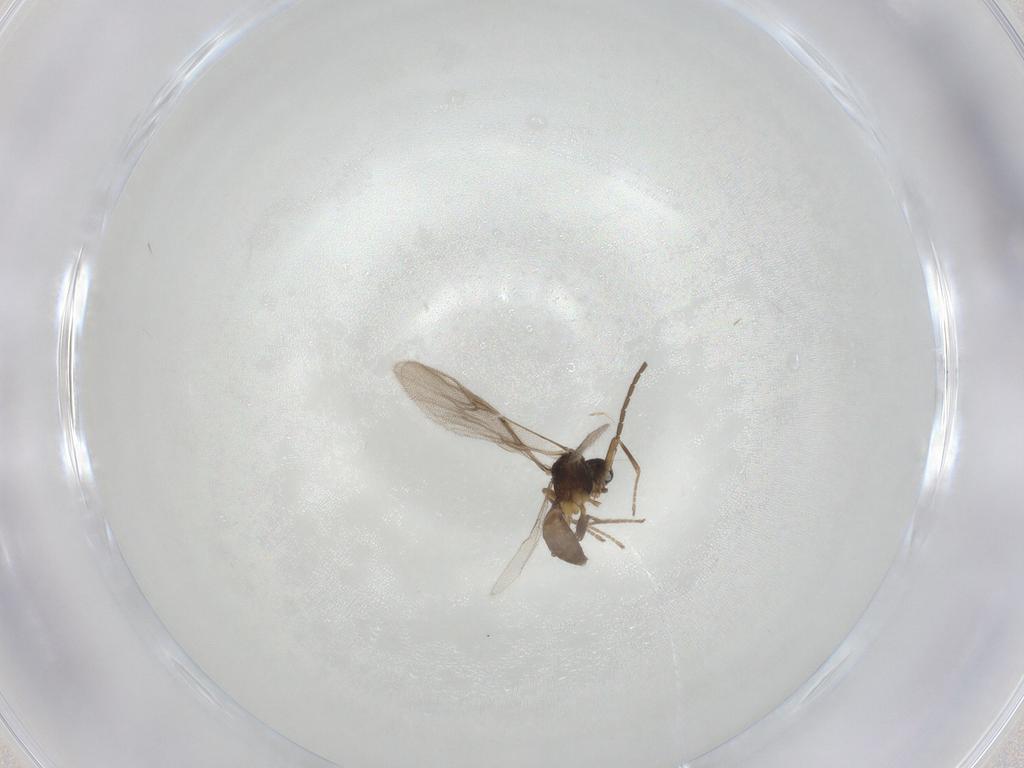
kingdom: Animalia
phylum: Arthropoda
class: Insecta
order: Hymenoptera
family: Braconidae
